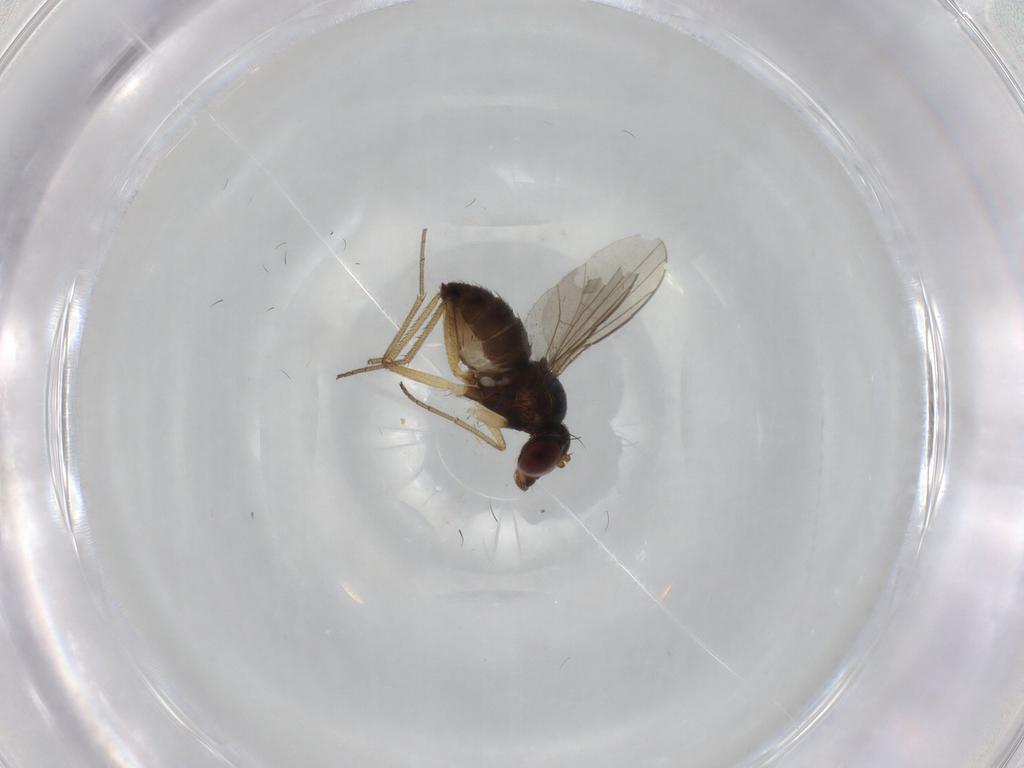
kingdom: Animalia
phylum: Arthropoda
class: Insecta
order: Diptera
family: Dolichopodidae
